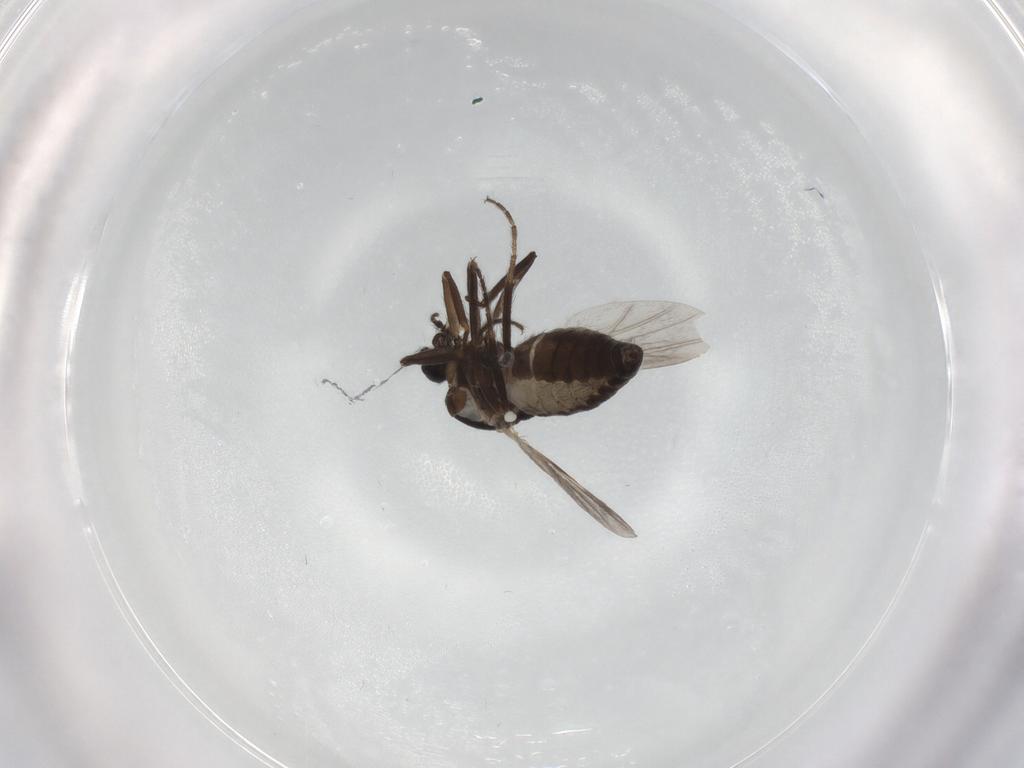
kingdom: Animalia
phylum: Arthropoda
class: Insecta
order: Diptera
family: Ceratopogonidae
